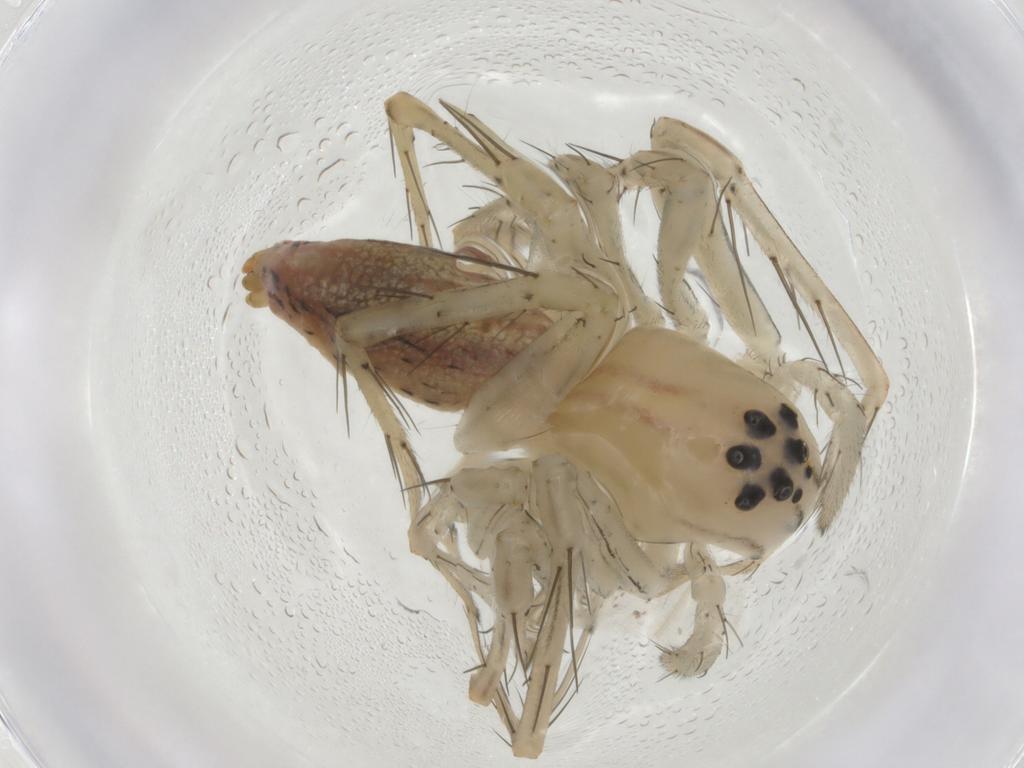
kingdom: Animalia
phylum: Arthropoda
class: Arachnida
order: Araneae
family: Oxyopidae
